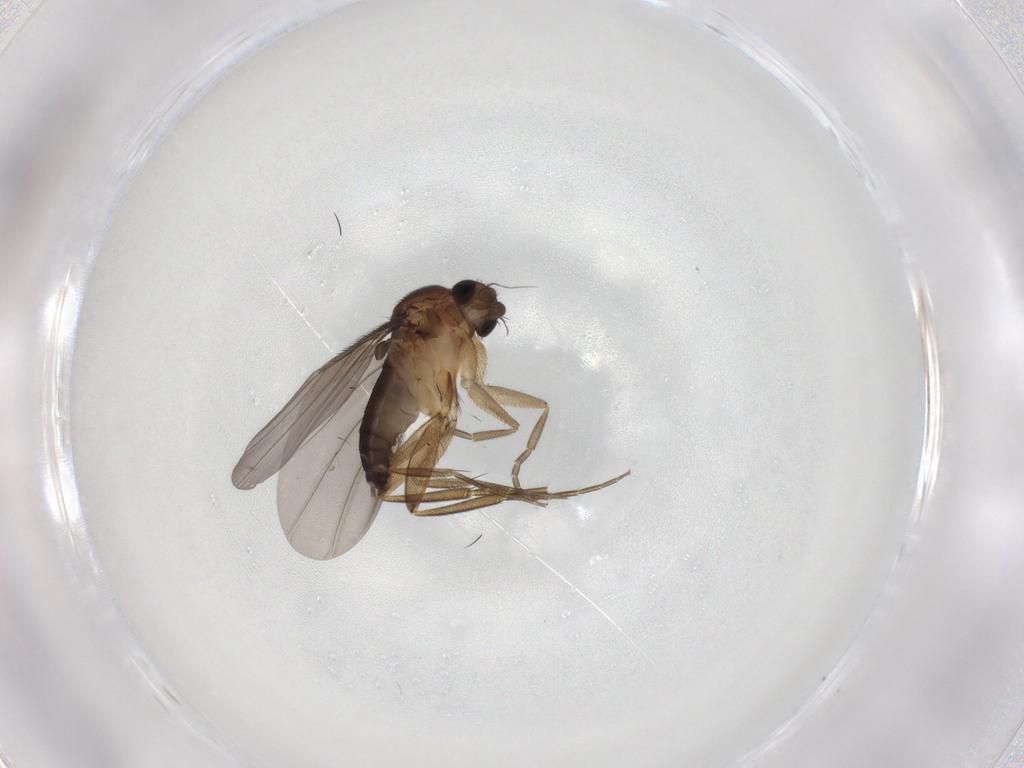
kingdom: Animalia
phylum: Arthropoda
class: Insecta
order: Diptera
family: Phoridae
